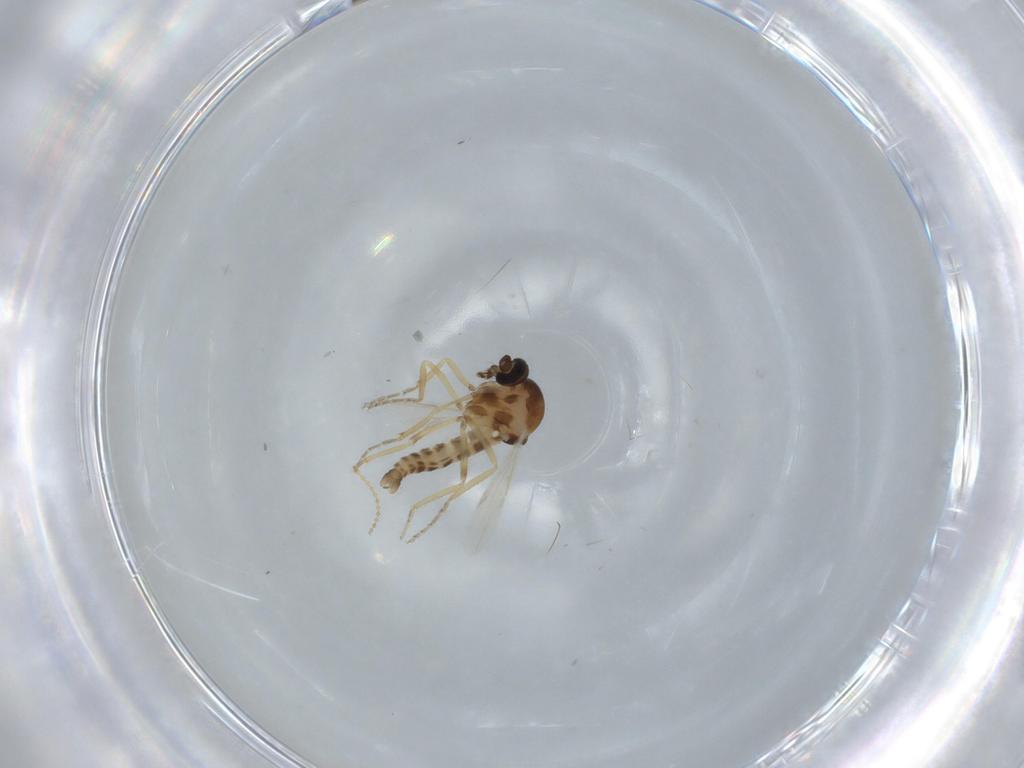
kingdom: Animalia
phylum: Arthropoda
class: Insecta
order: Diptera
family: Ceratopogonidae
